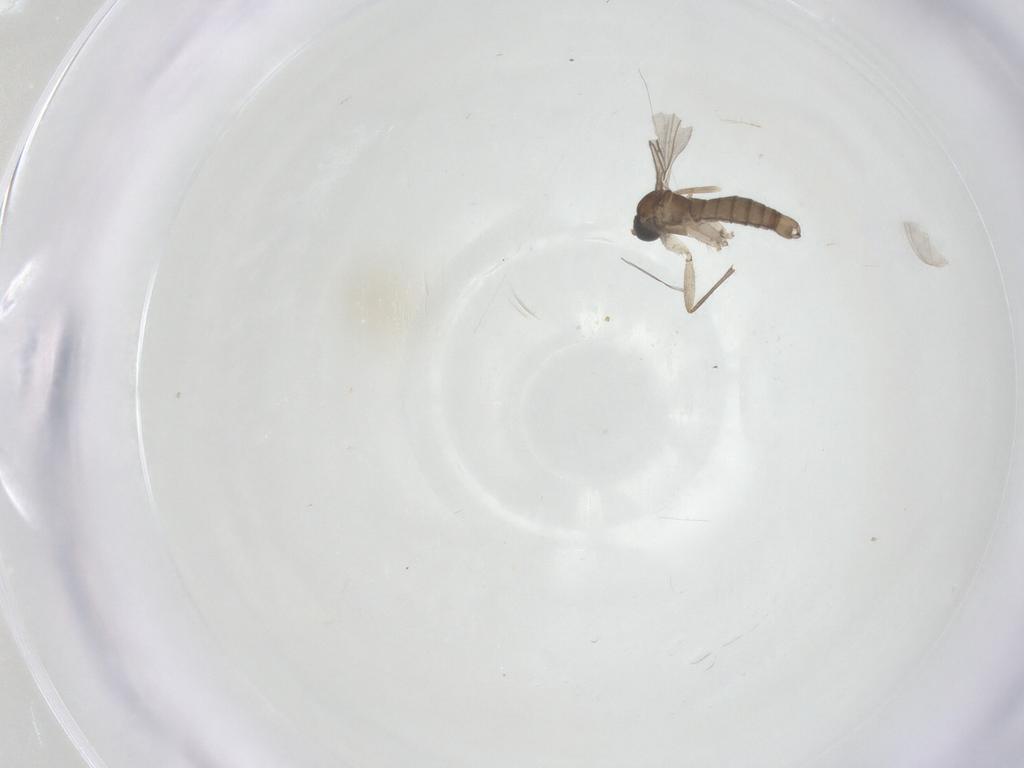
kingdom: Animalia
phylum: Arthropoda
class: Insecta
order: Diptera
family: Sciaridae
